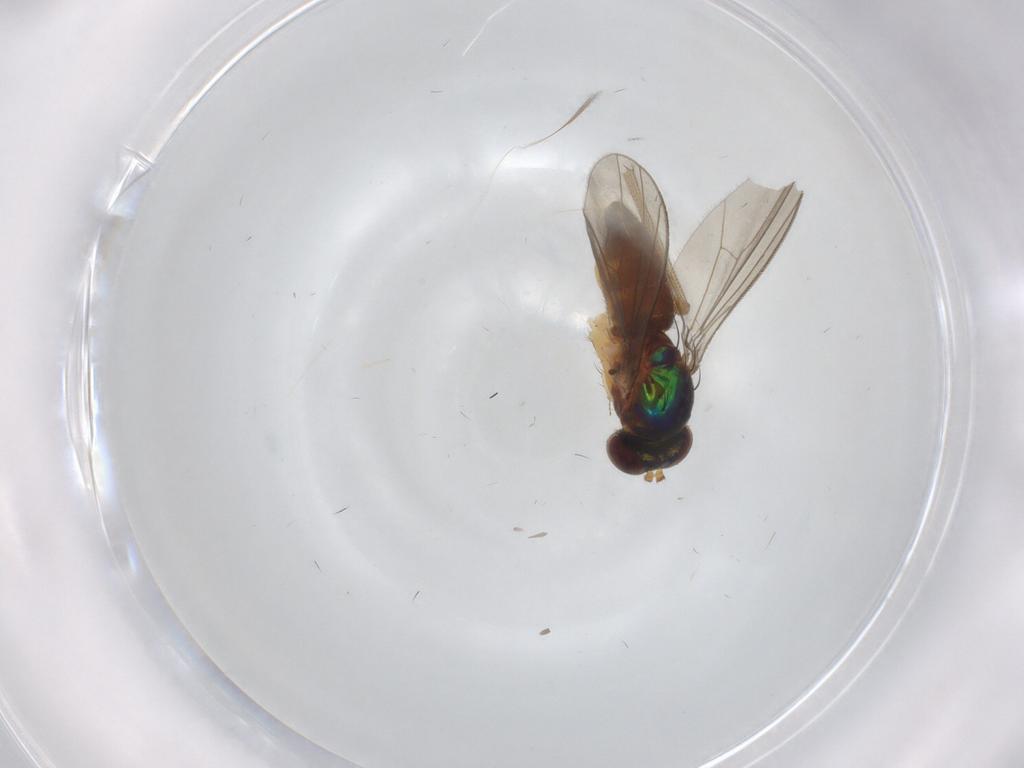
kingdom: Animalia
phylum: Arthropoda
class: Insecta
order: Diptera
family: Dolichopodidae
